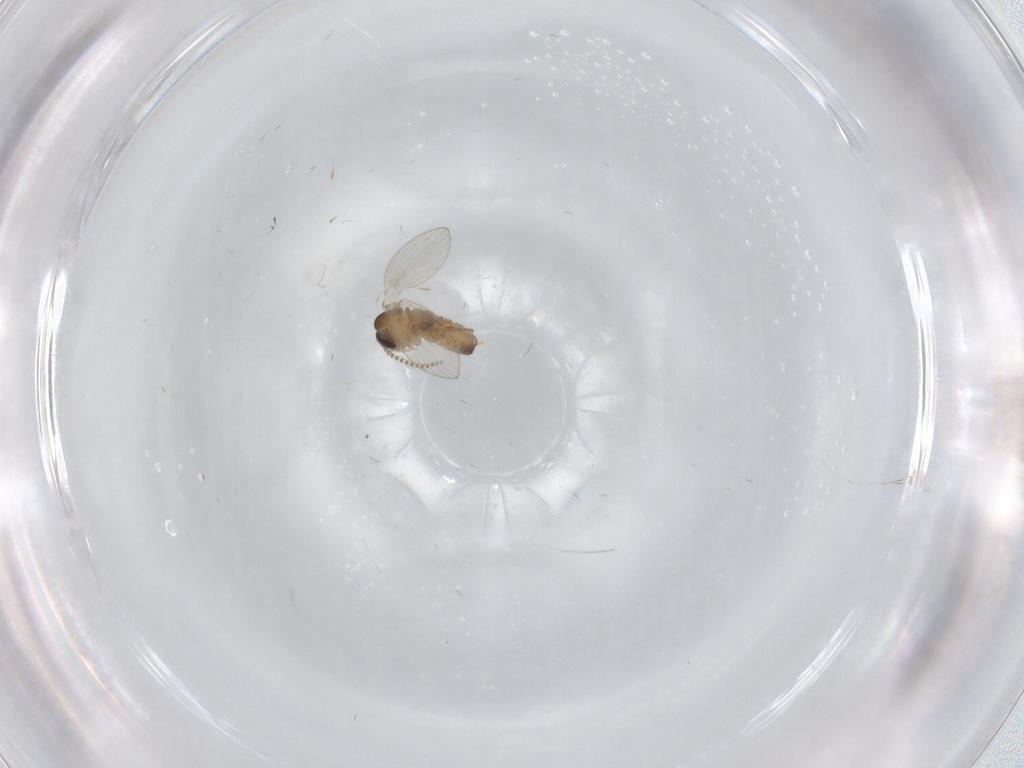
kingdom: Animalia
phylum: Arthropoda
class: Insecta
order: Diptera
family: Psychodidae
